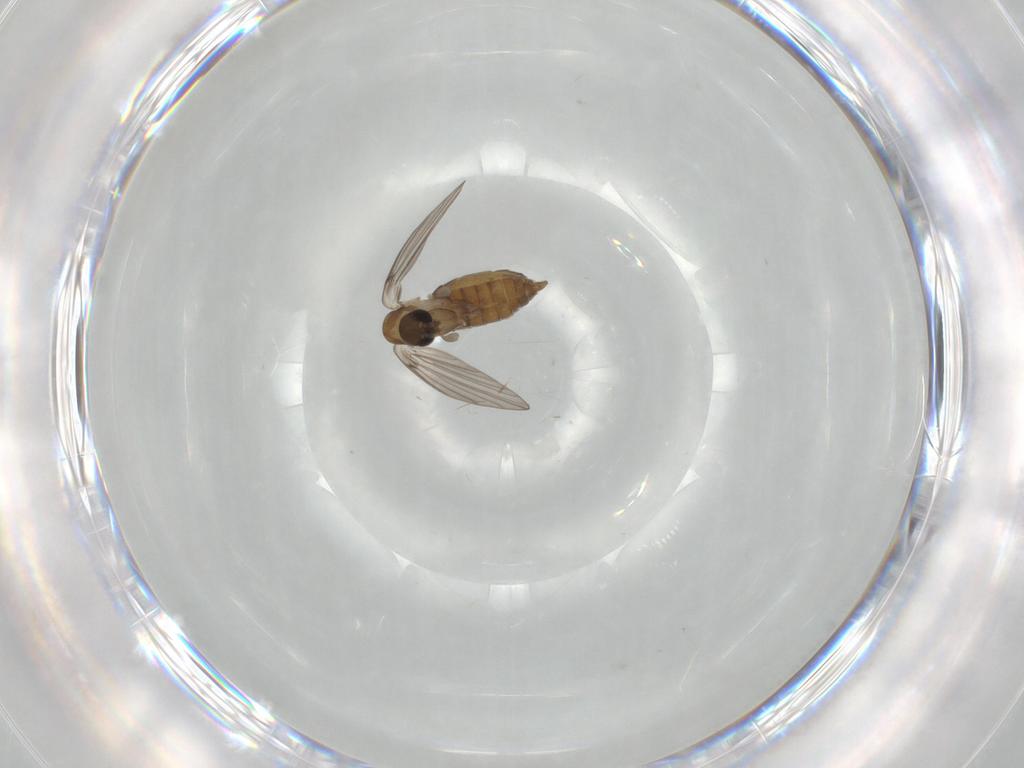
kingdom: Animalia
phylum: Arthropoda
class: Insecta
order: Diptera
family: Psychodidae
